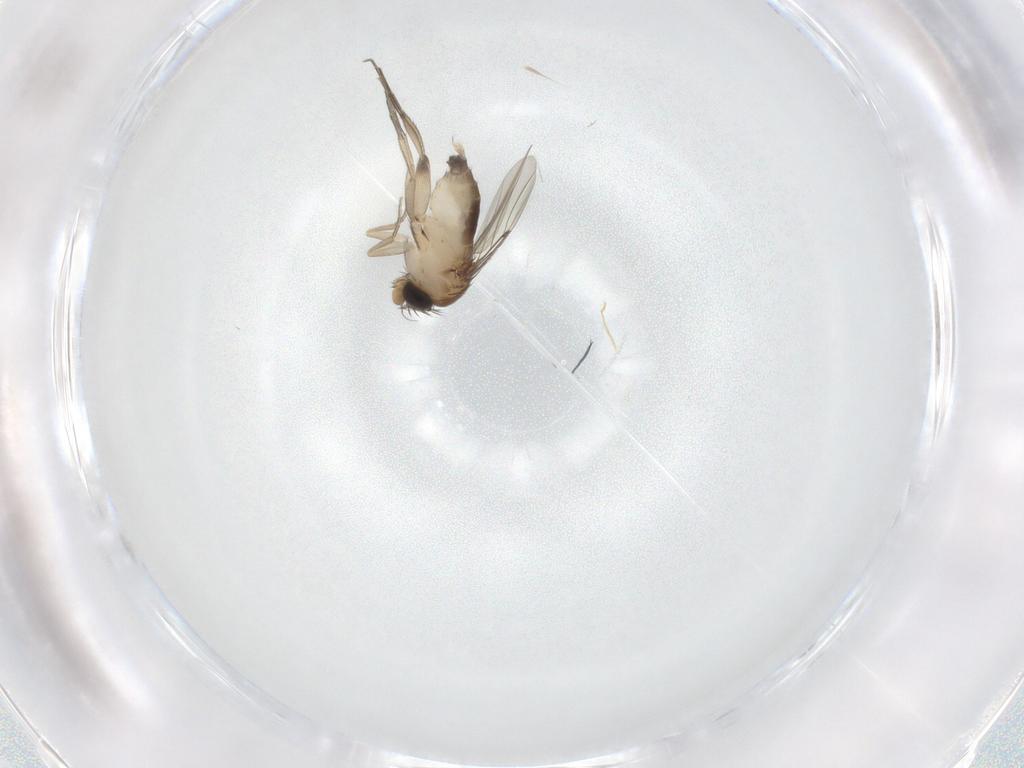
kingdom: Animalia
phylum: Arthropoda
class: Insecta
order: Diptera
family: Phoridae
